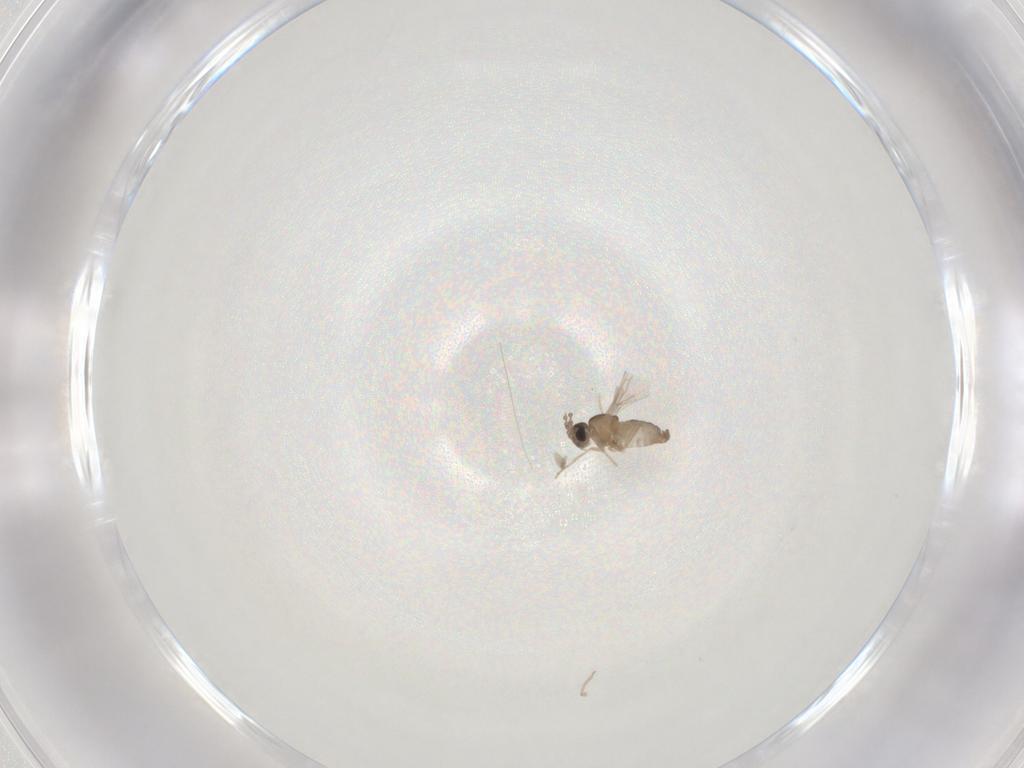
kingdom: Animalia
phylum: Arthropoda
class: Insecta
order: Diptera
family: Cecidomyiidae
